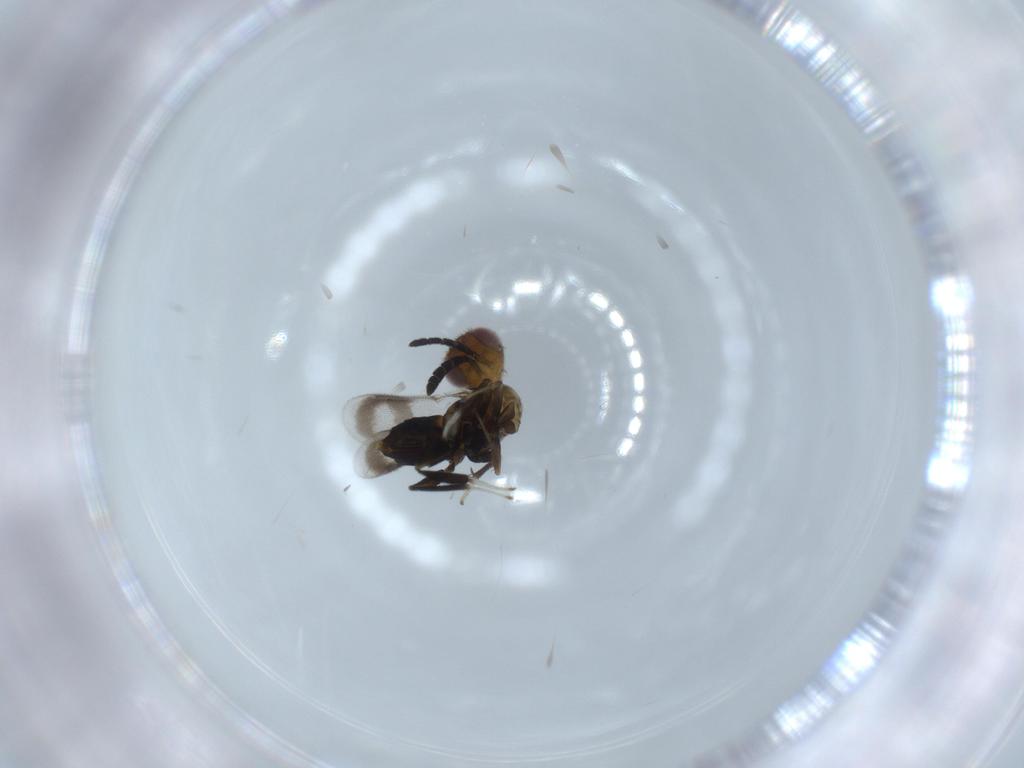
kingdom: Animalia
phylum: Arthropoda
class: Insecta
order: Hymenoptera
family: Aphelinidae
